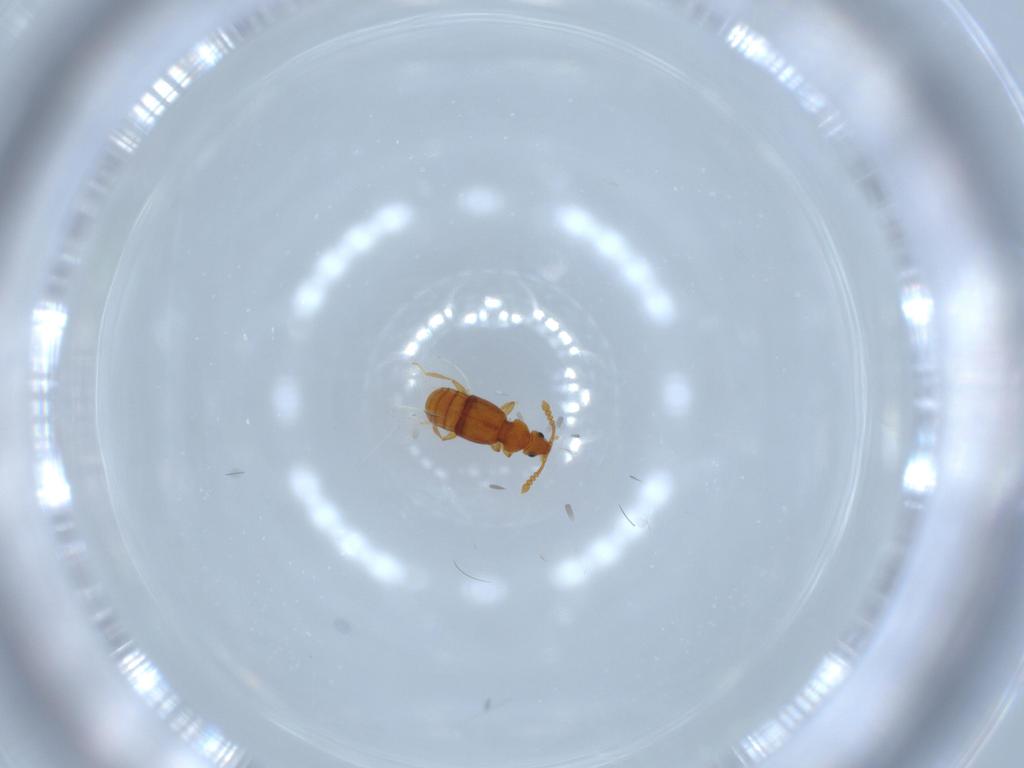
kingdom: Animalia
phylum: Arthropoda
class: Insecta
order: Coleoptera
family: Staphylinidae
